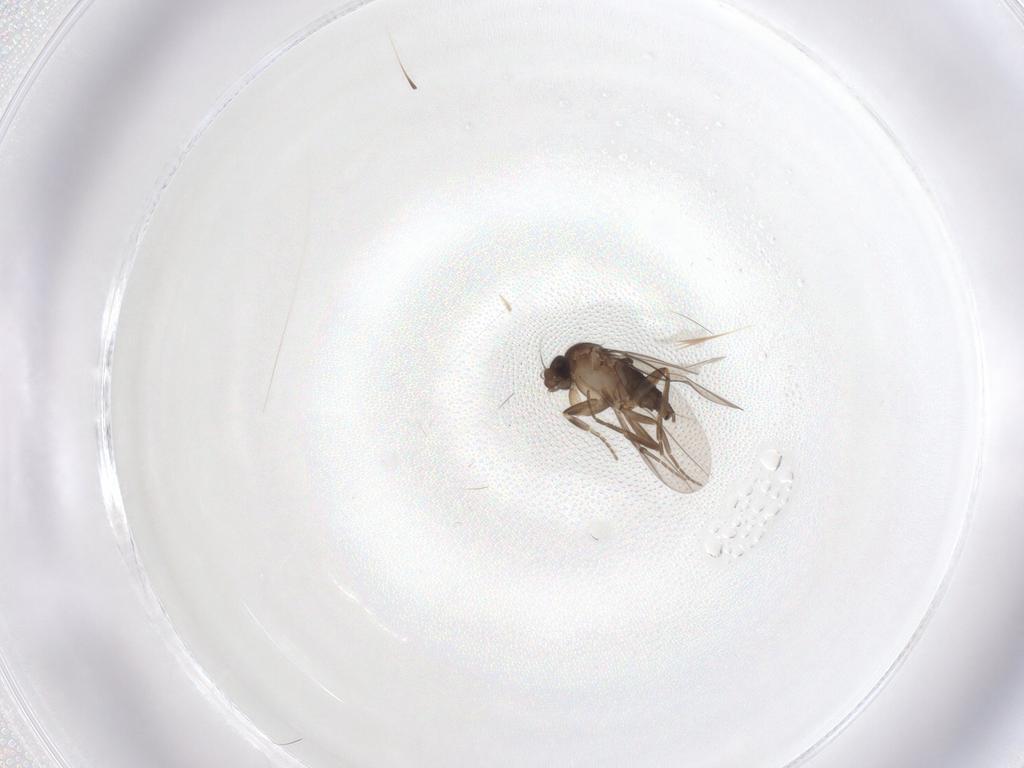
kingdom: Animalia
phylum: Arthropoda
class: Insecta
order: Diptera
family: Phoridae
